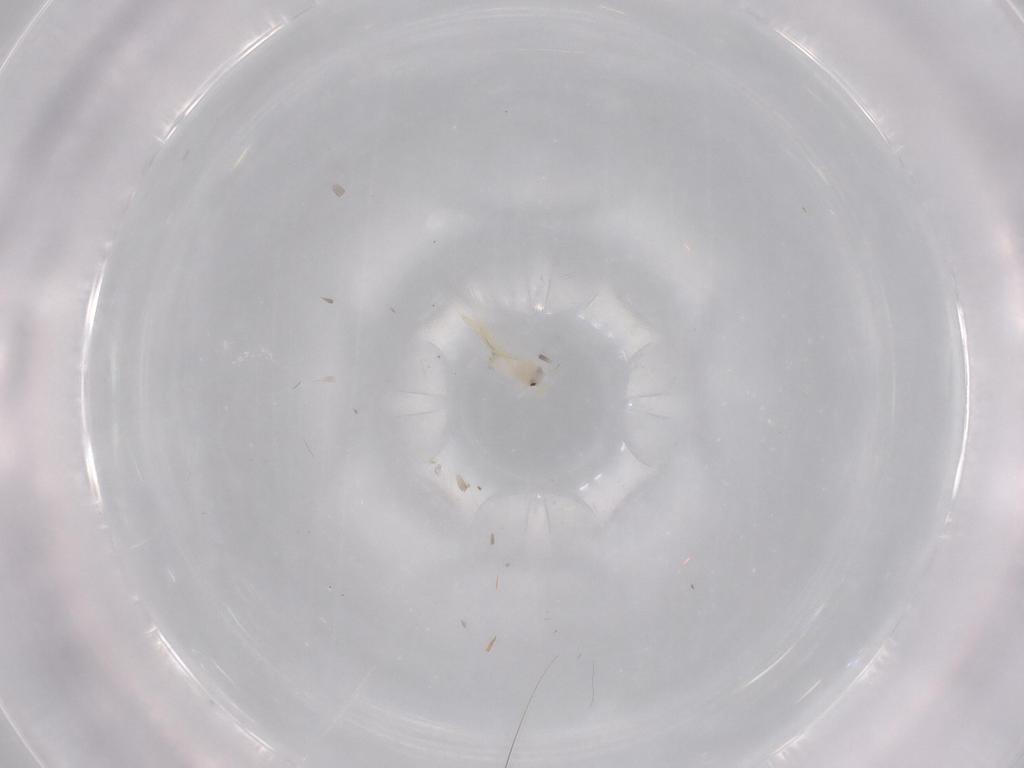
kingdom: Animalia
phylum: Arthropoda
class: Insecta
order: Hemiptera
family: Aleyrodidae
